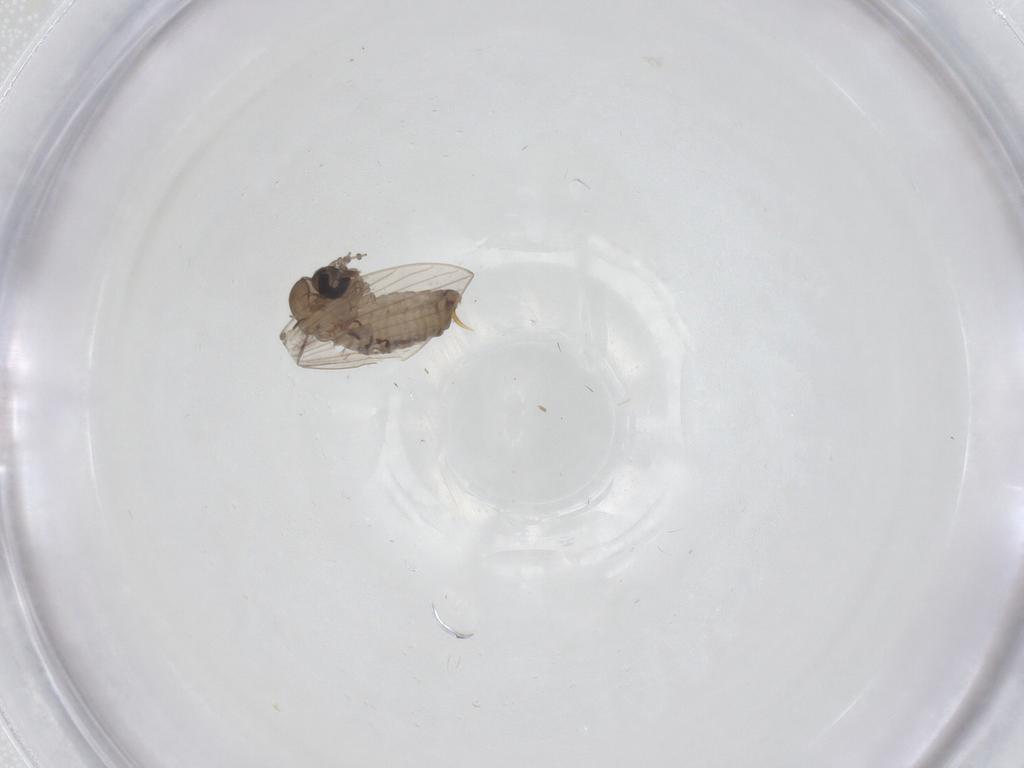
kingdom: Animalia
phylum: Arthropoda
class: Insecta
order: Diptera
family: Psychodidae
